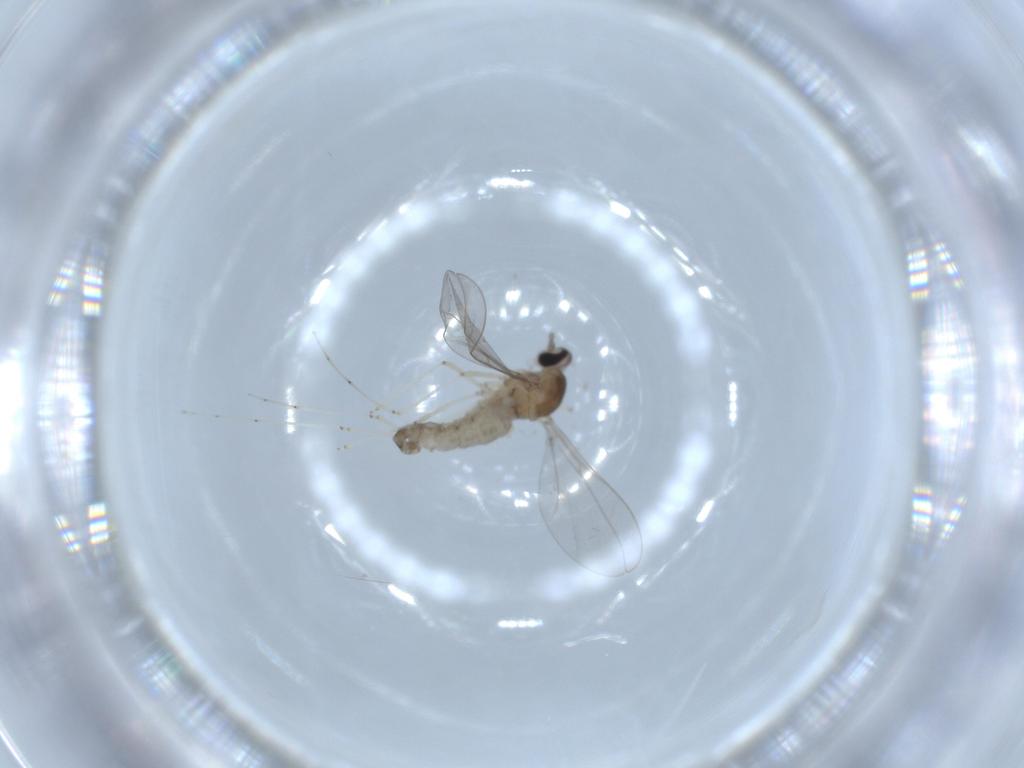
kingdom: Animalia
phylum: Arthropoda
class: Insecta
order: Diptera
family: Cecidomyiidae
